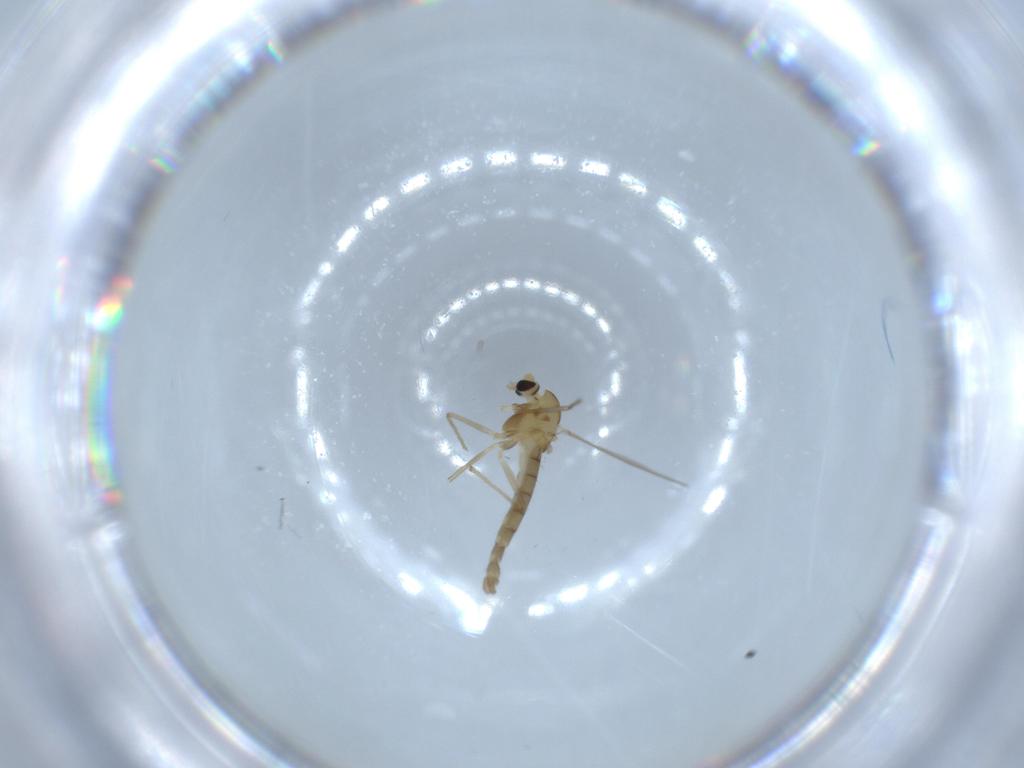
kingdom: Animalia
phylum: Arthropoda
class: Insecta
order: Diptera
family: Chironomidae
